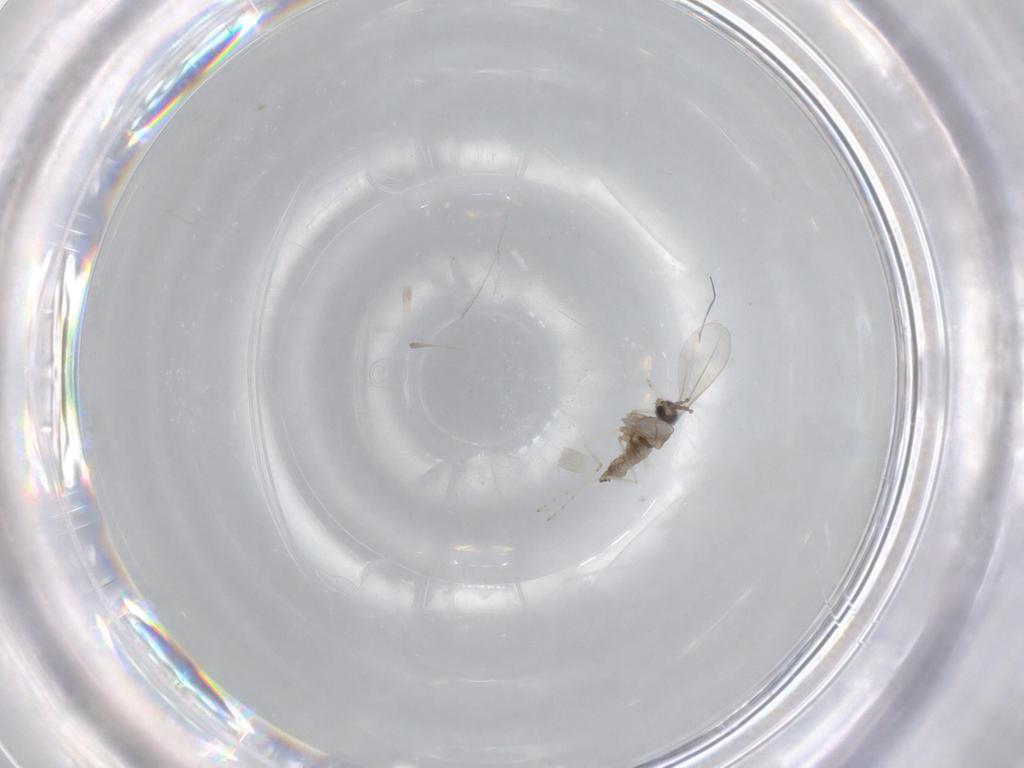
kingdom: Animalia
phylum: Arthropoda
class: Insecta
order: Diptera
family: Cecidomyiidae
